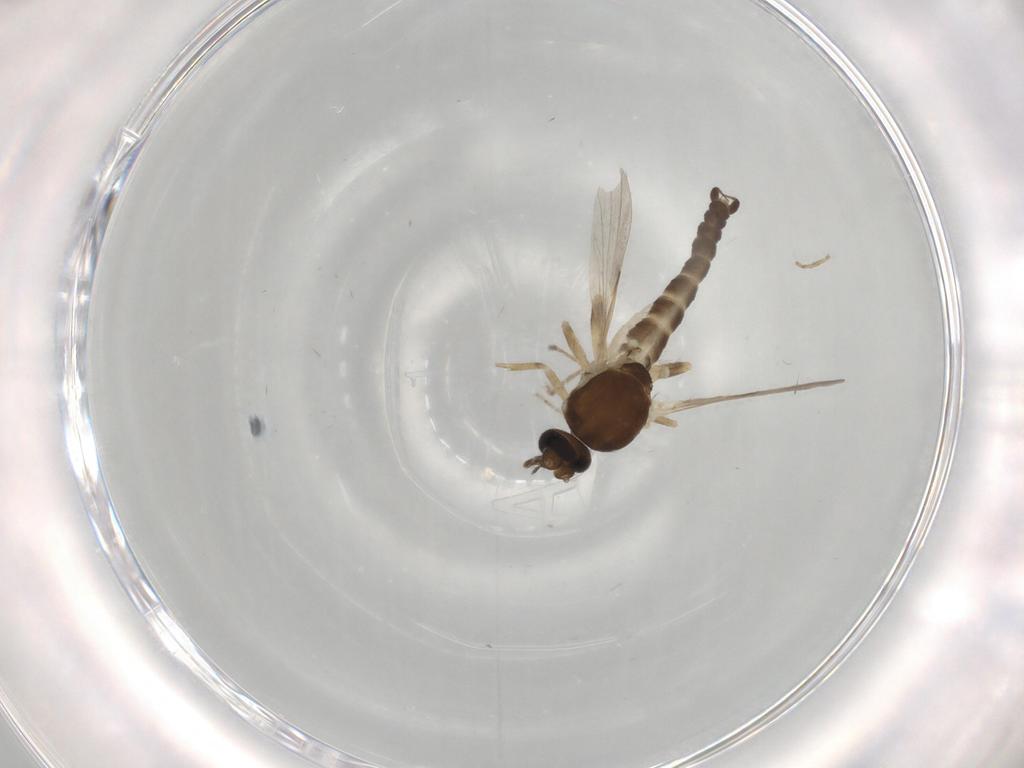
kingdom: Animalia
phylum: Arthropoda
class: Insecta
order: Diptera
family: Ceratopogonidae
